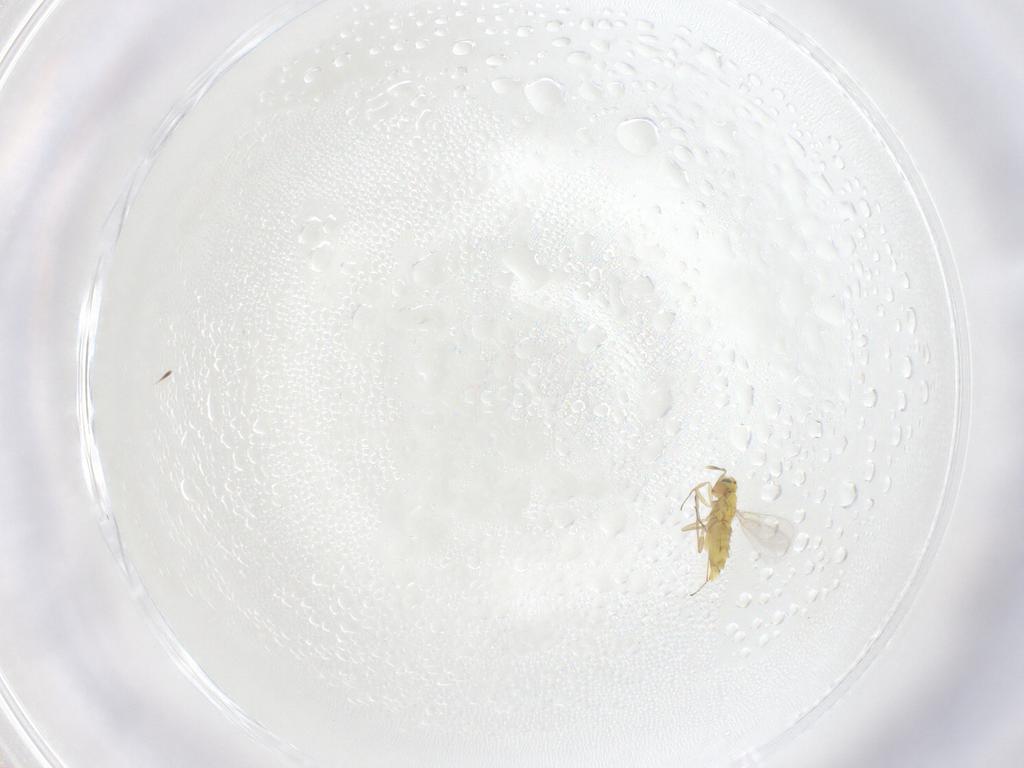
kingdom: Animalia
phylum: Arthropoda
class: Insecta
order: Hymenoptera
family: Aphelinidae
